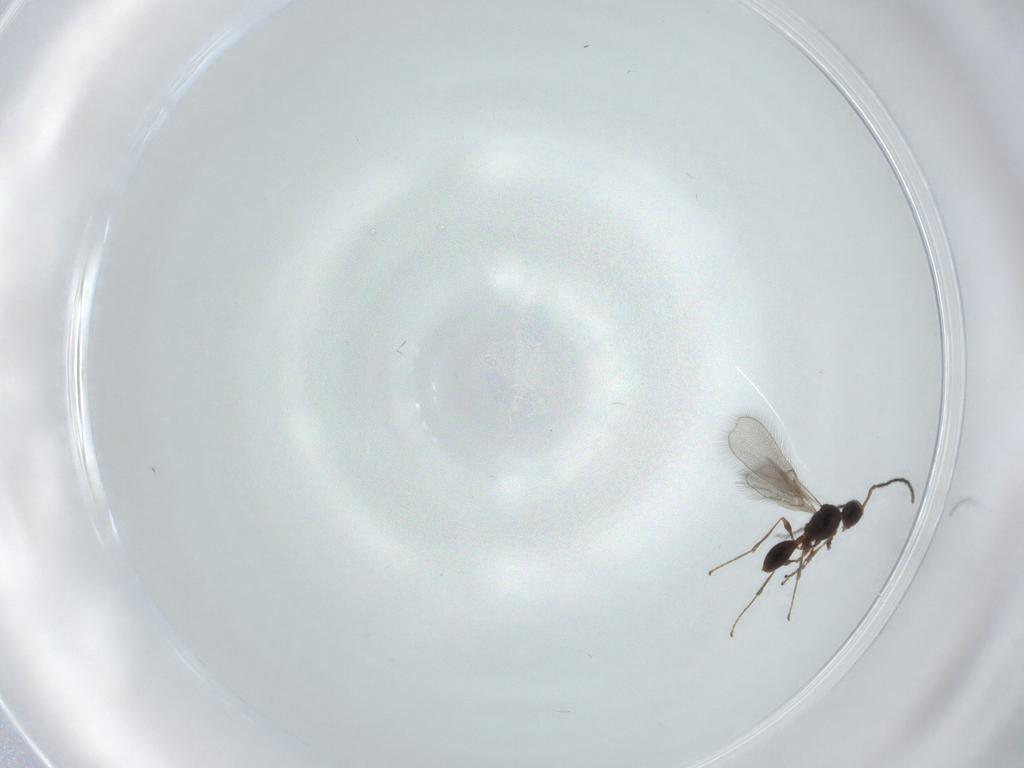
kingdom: Animalia
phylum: Arthropoda
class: Insecta
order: Hymenoptera
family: Diapriidae
